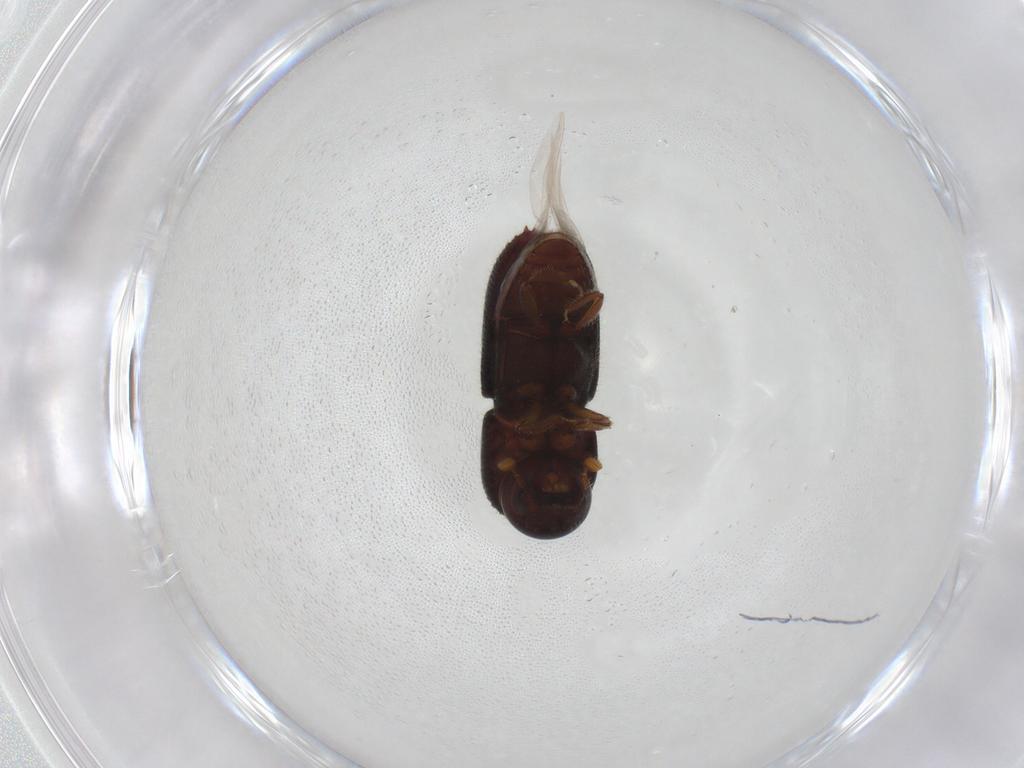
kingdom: Animalia
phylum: Arthropoda
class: Insecta
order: Coleoptera
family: Curculionidae
